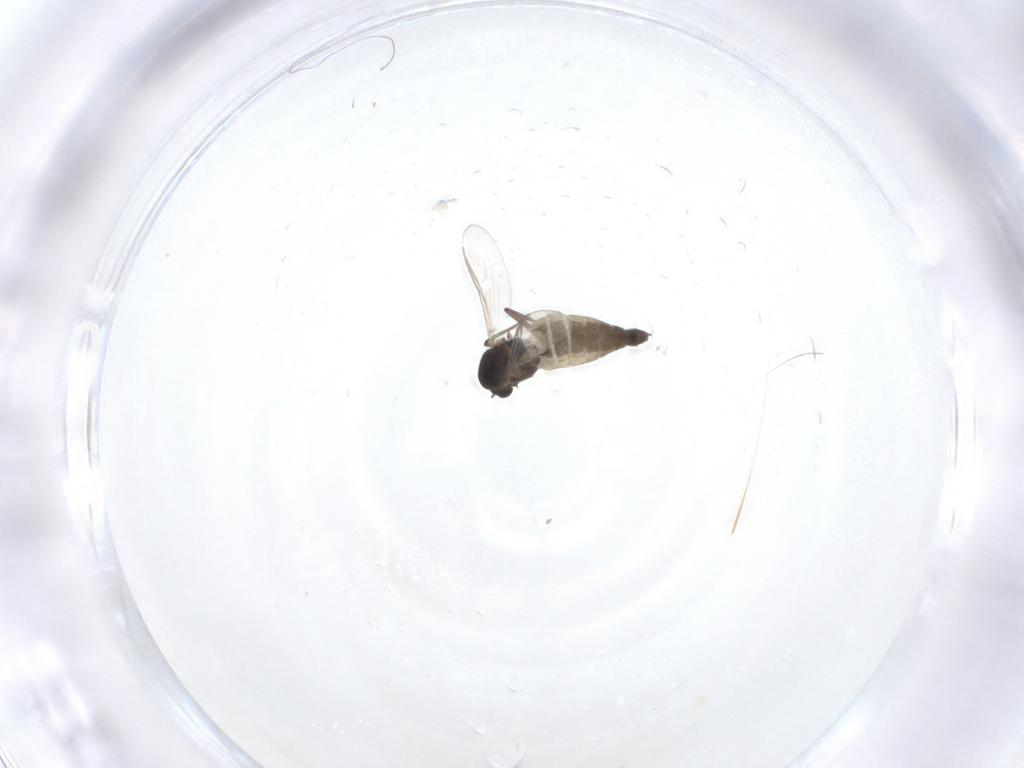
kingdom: Animalia
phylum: Arthropoda
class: Insecta
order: Diptera
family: Chironomidae
